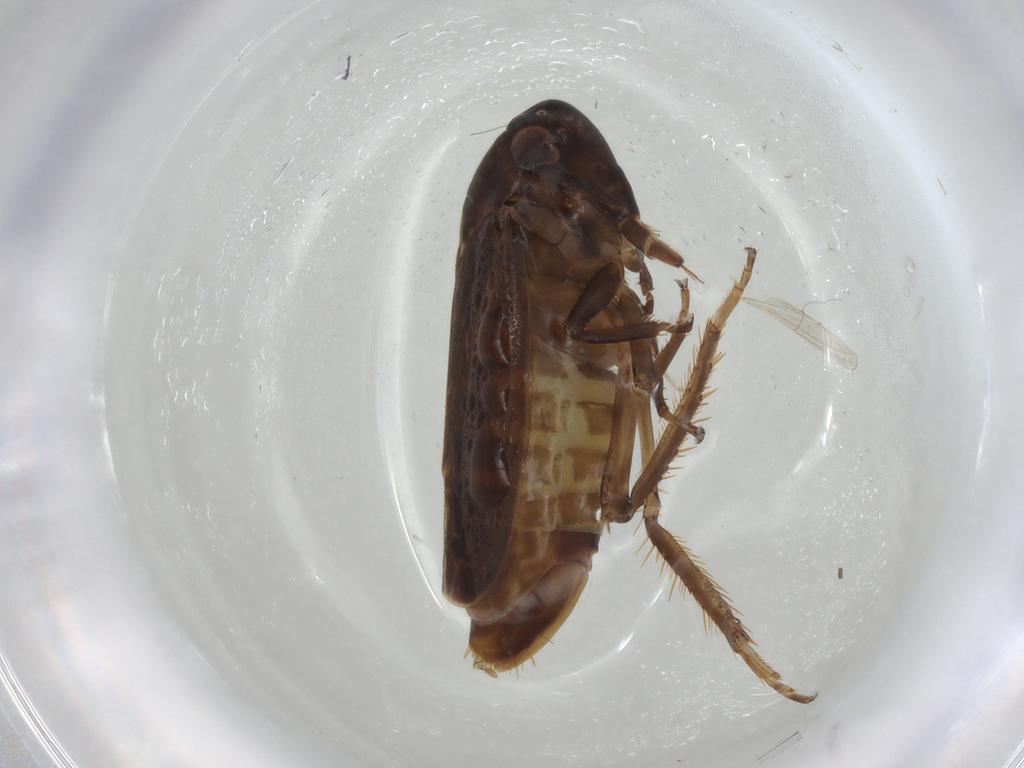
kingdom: Animalia
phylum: Arthropoda
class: Insecta
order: Hemiptera
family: Cicadellidae
